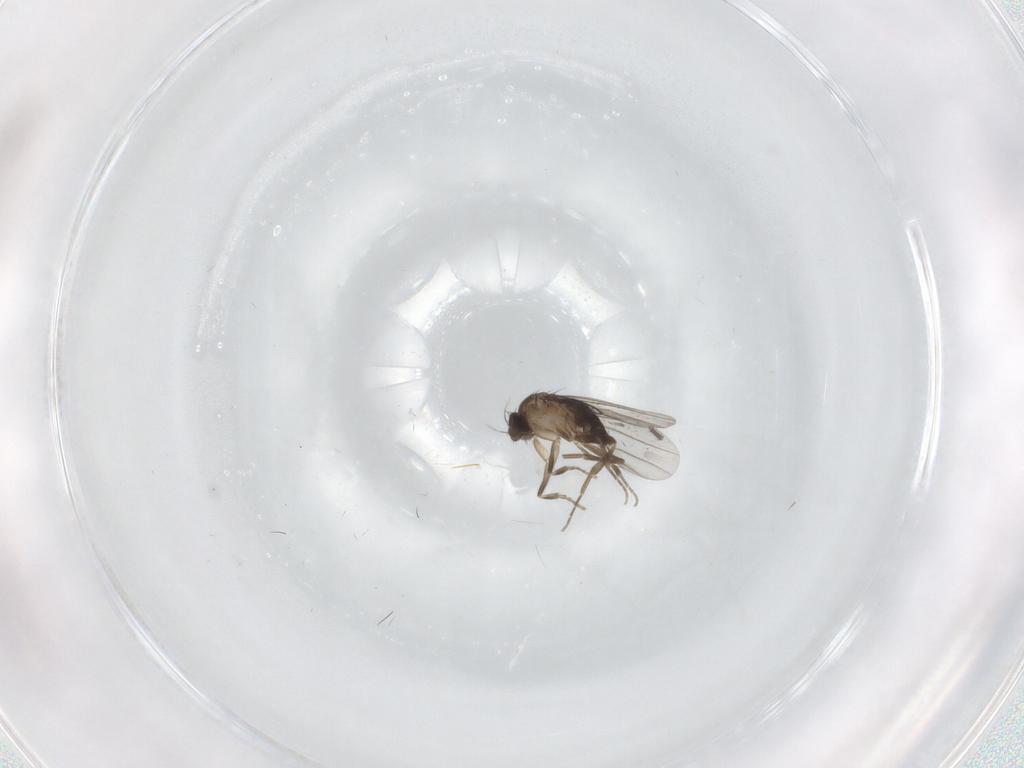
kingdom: Animalia
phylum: Arthropoda
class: Insecta
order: Diptera
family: Phoridae
